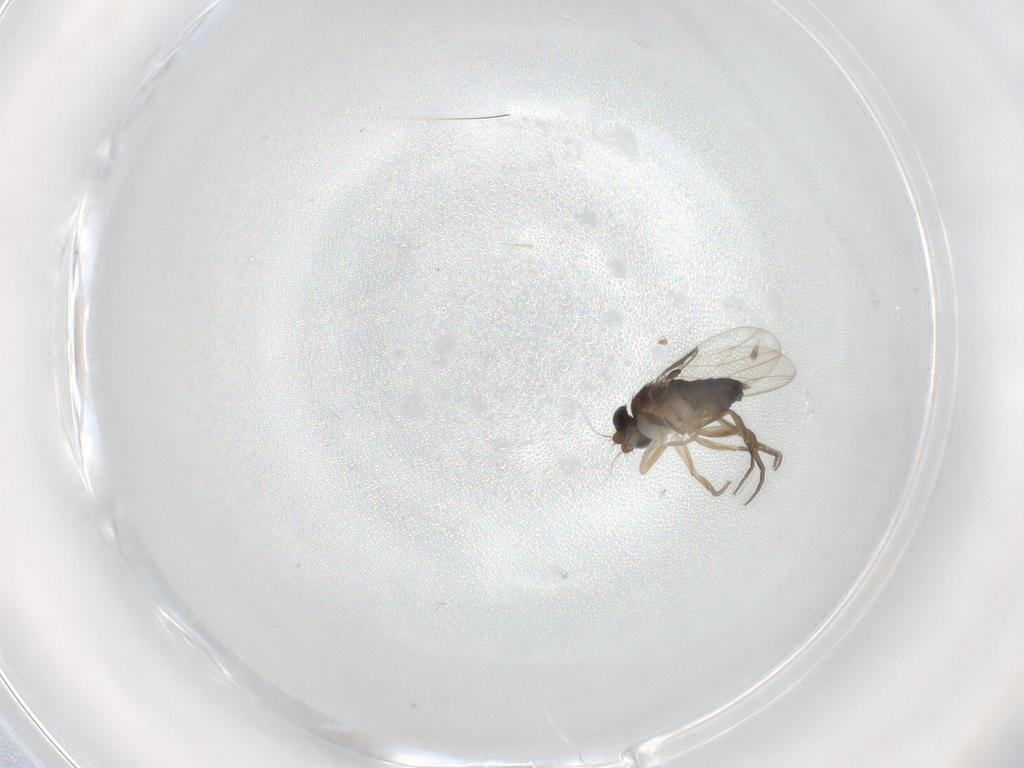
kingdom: Animalia
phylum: Arthropoda
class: Insecta
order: Diptera
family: Phoridae
